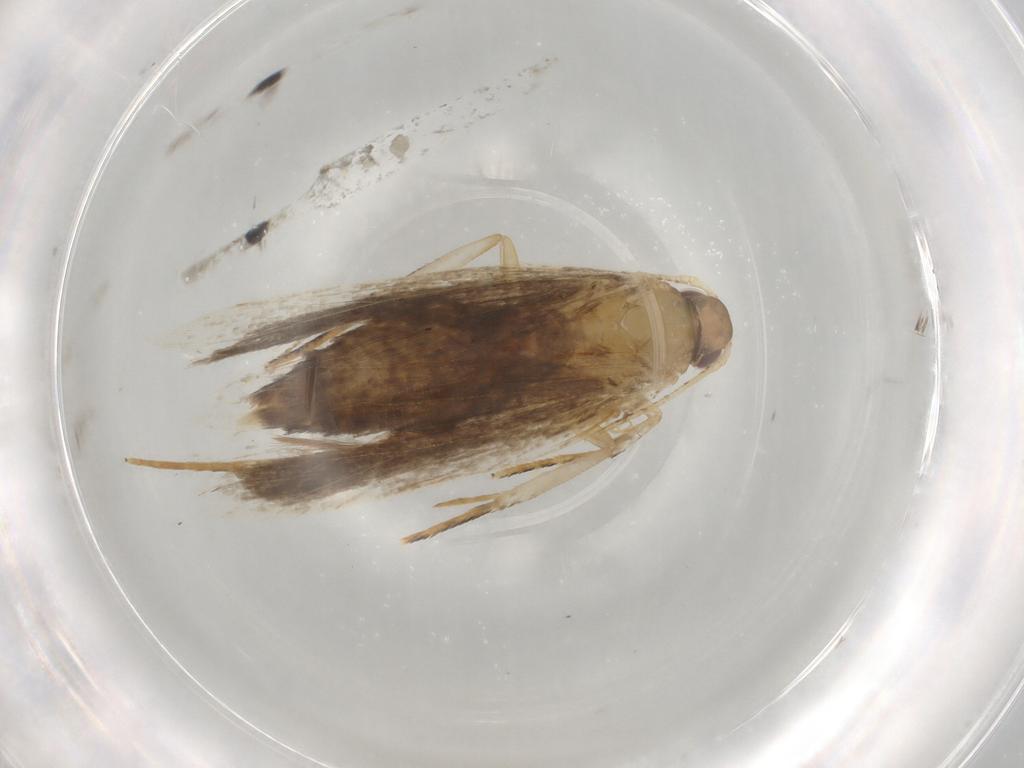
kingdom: Animalia
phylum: Arthropoda
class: Insecta
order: Lepidoptera
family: Gelechiidae
